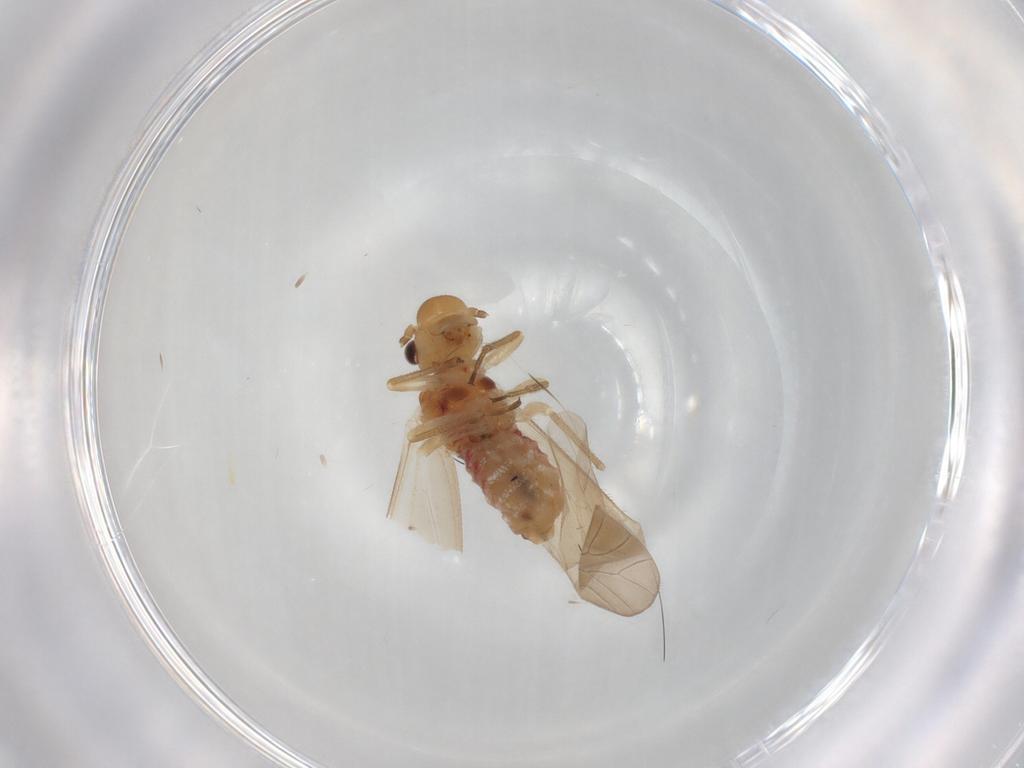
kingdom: Animalia
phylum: Arthropoda
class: Insecta
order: Psocodea
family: Caeciliusidae
